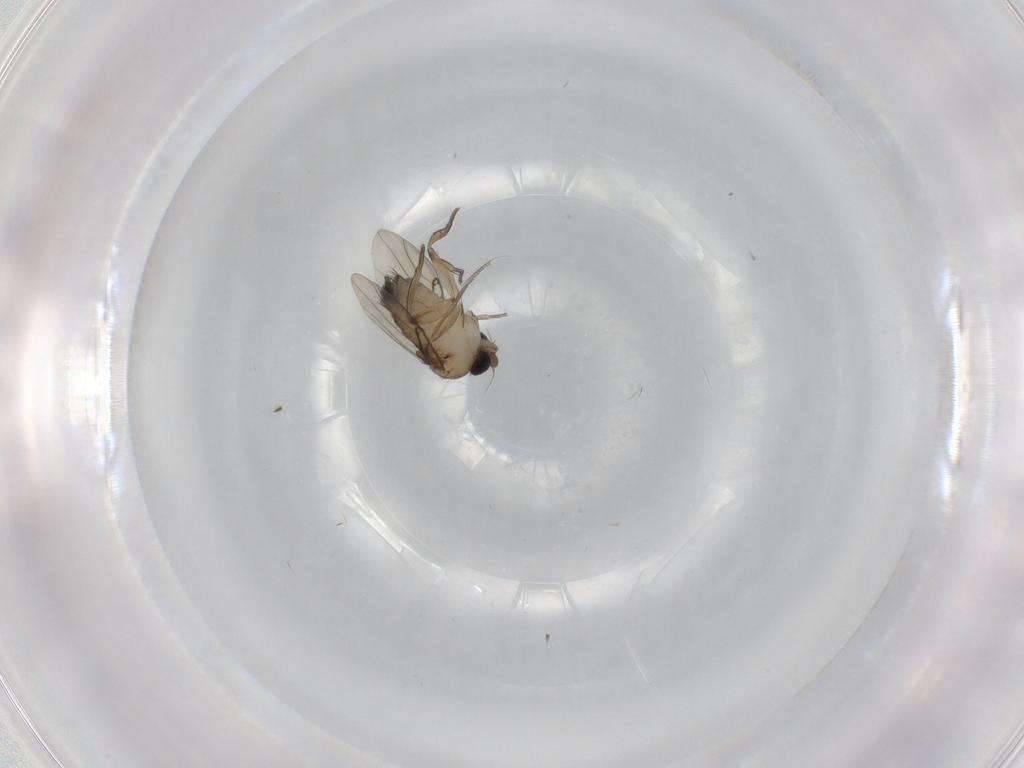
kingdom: Animalia
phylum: Arthropoda
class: Insecta
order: Diptera
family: Phoridae
